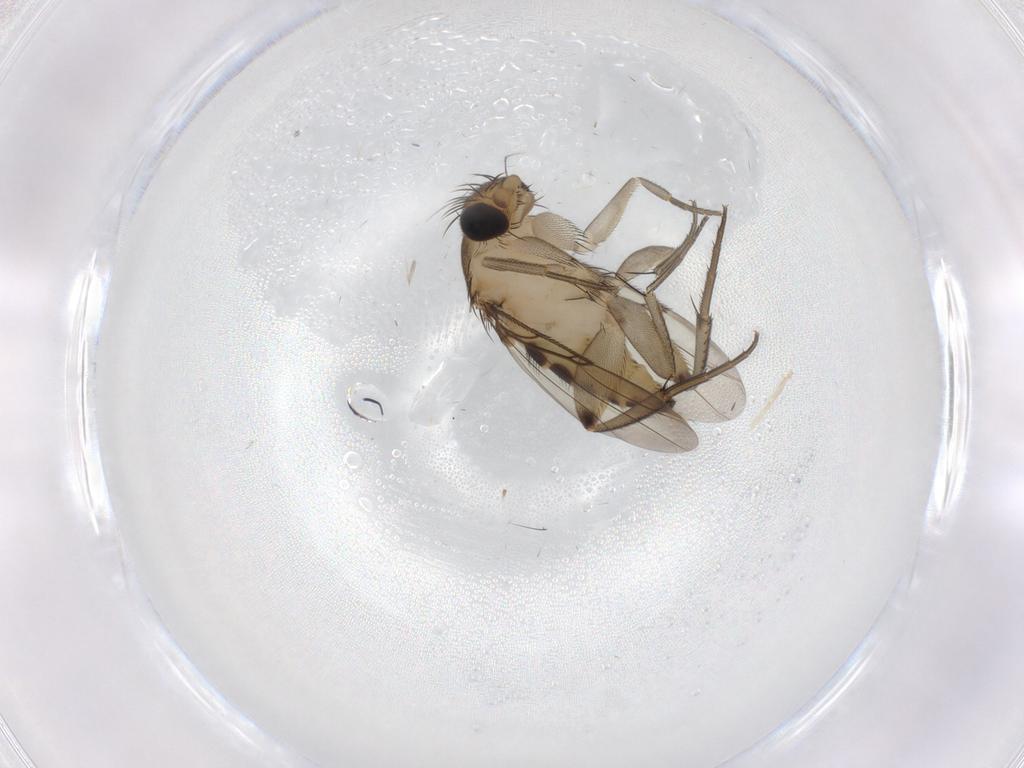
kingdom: Animalia
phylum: Arthropoda
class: Insecta
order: Diptera
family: Phoridae
